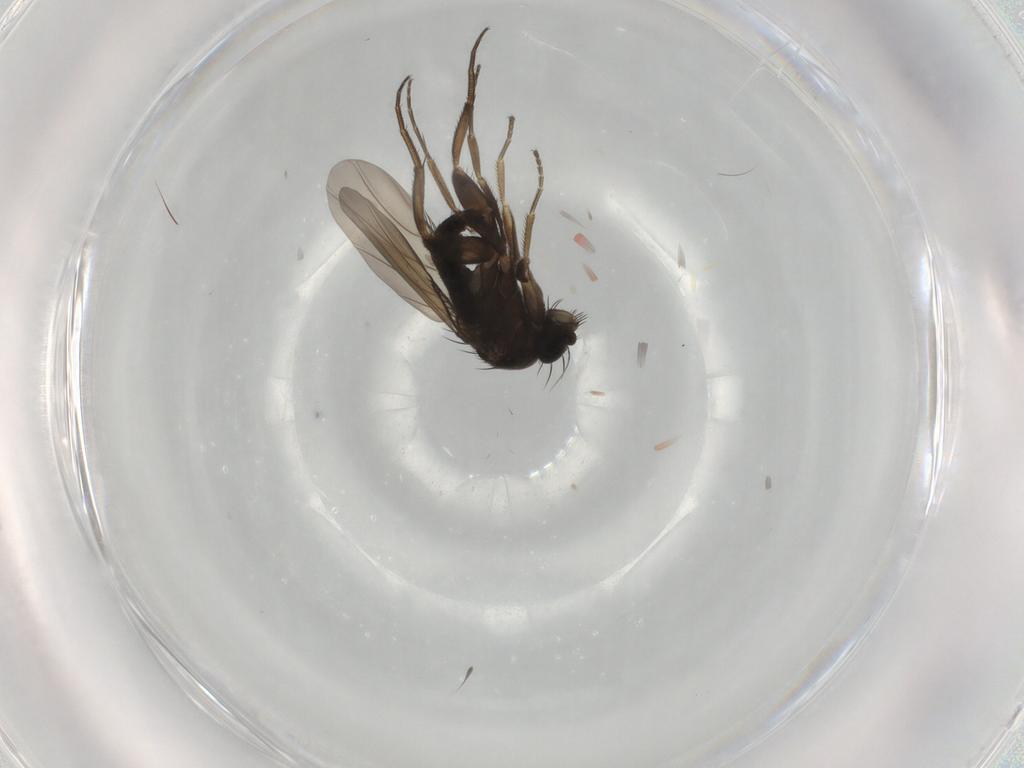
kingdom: Animalia
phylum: Arthropoda
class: Insecta
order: Diptera
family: Phoridae
